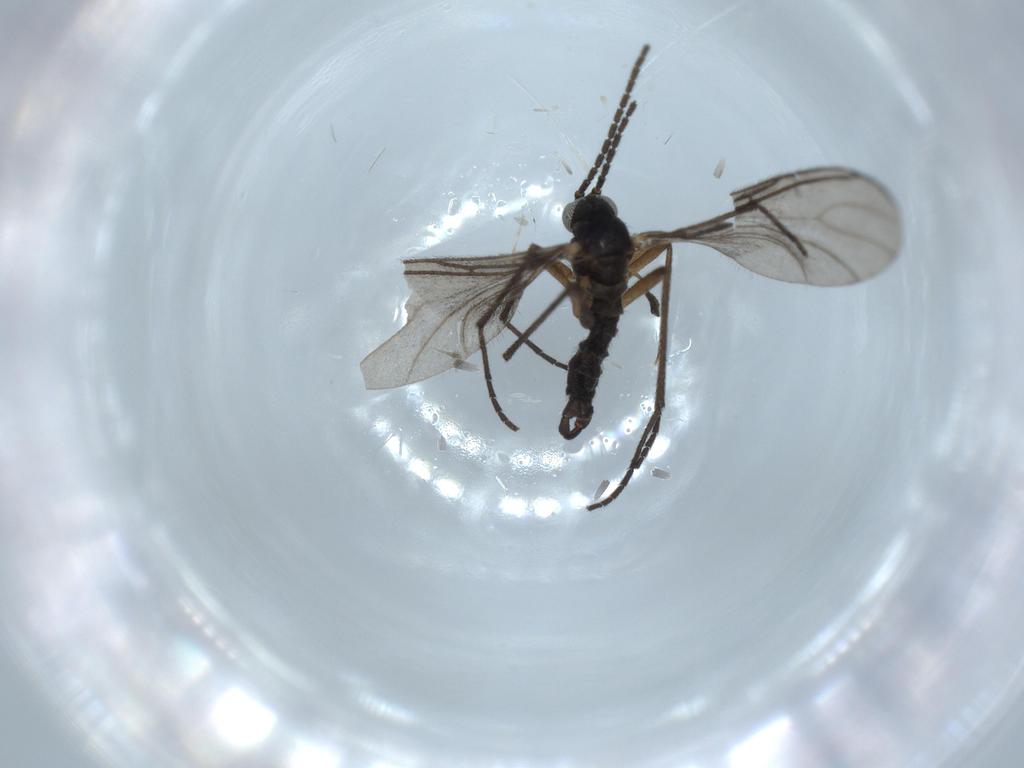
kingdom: Animalia
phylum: Arthropoda
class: Insecta
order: Diptera
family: Sciaridae
